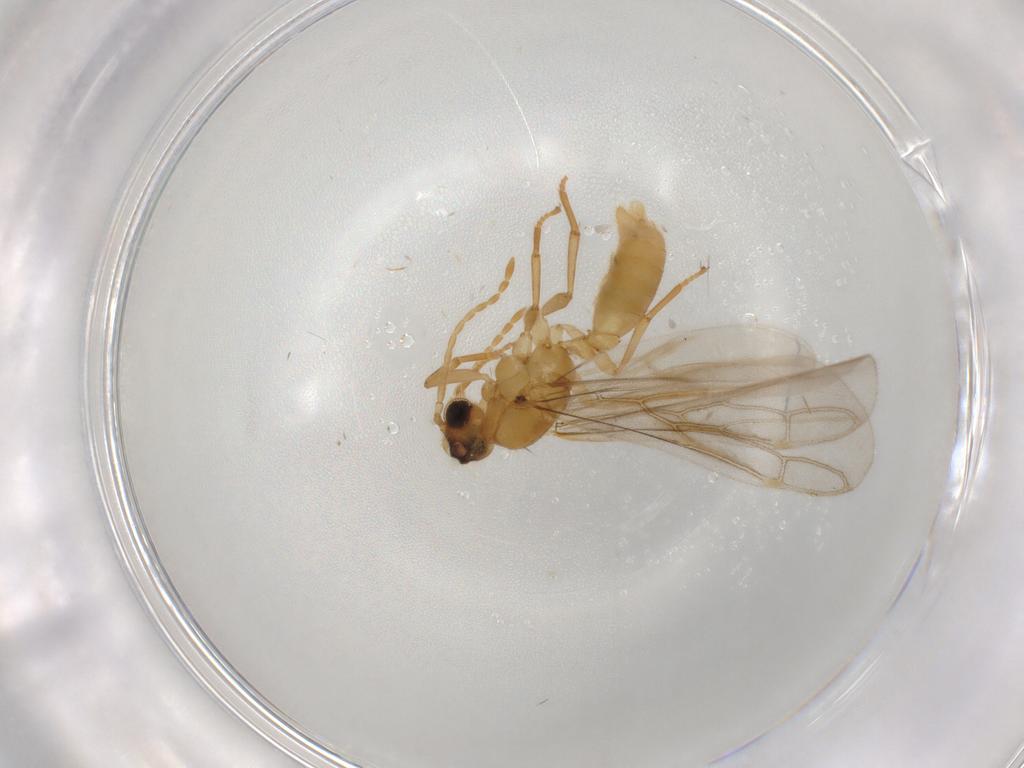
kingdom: Animalia
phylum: Arthropoda
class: Insecta
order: Hymenoptera
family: Formicidae
